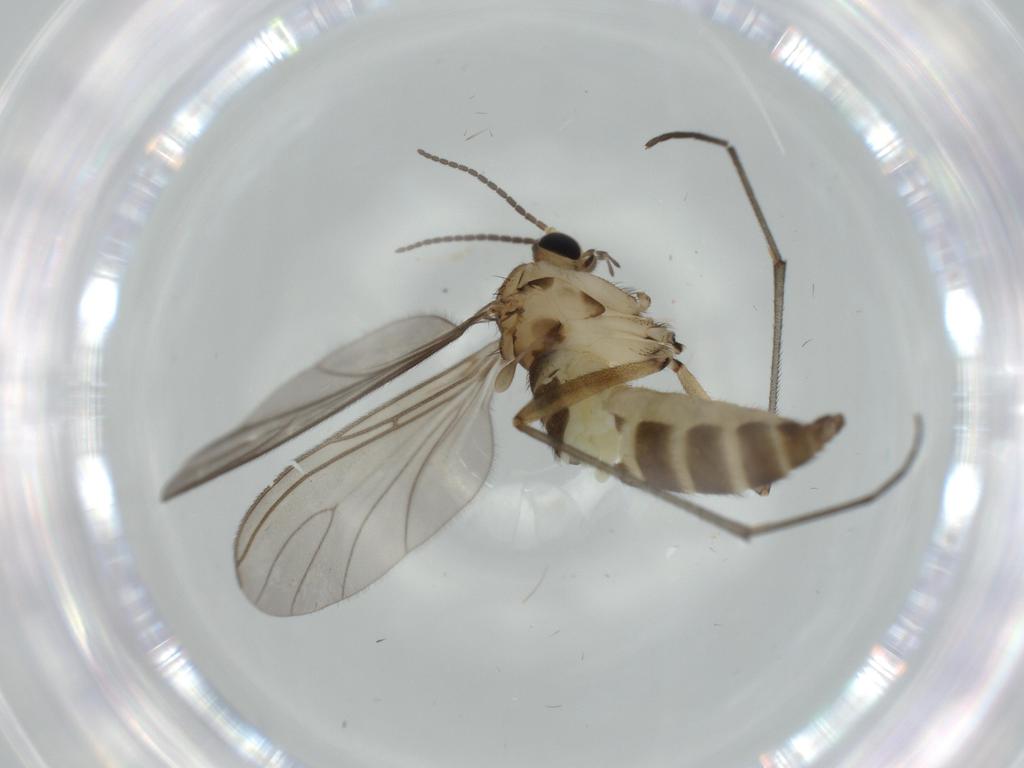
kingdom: Animalia
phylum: Arthropoda
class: Insecta
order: Diptera
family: Sciaridae
